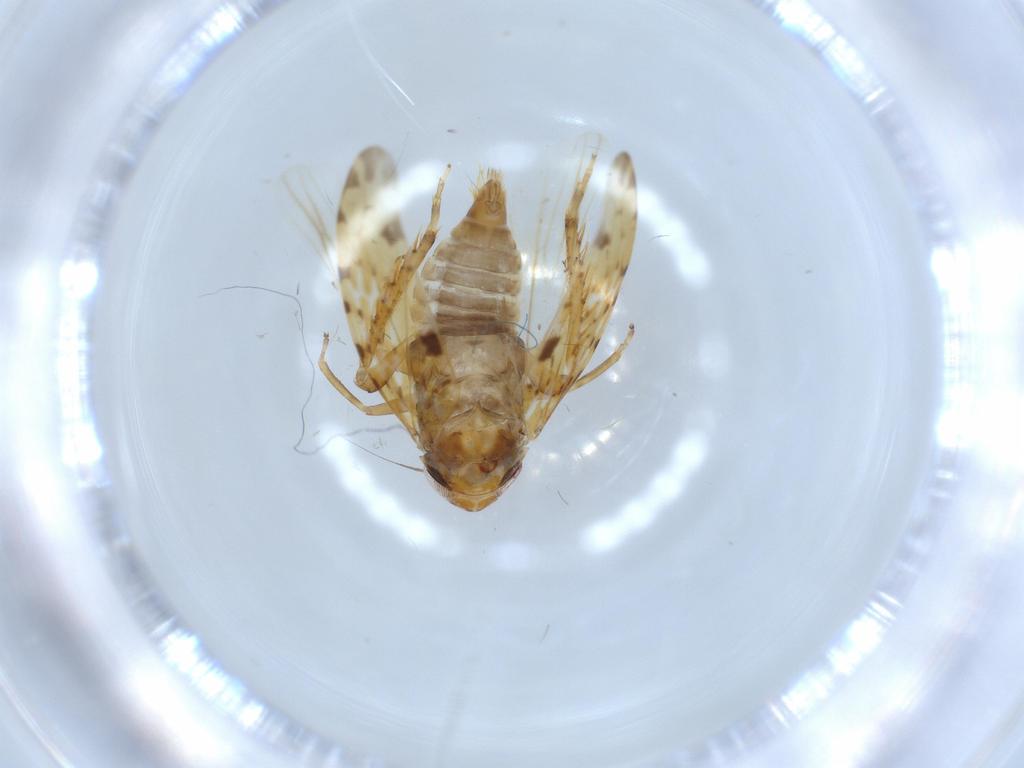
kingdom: Animalia
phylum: Arthropoda
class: Insecta
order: Hemiptera
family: Cicadellidae
